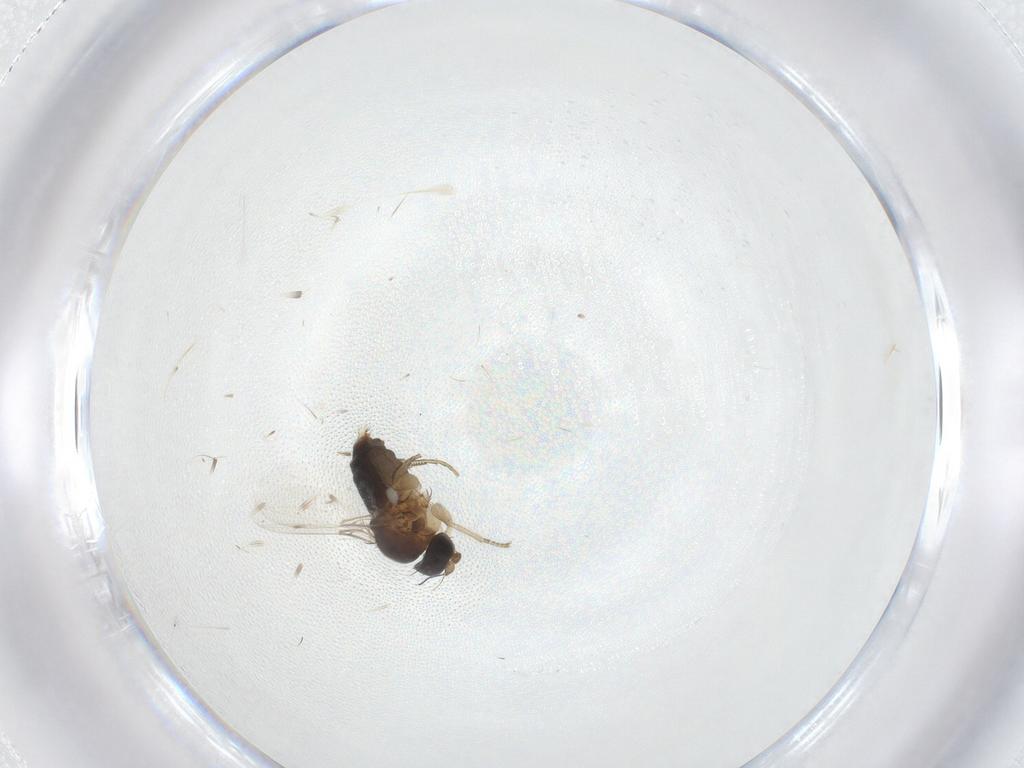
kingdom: Animalia
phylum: Arthropoda
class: Insecta
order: Diptera
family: Phoridae
